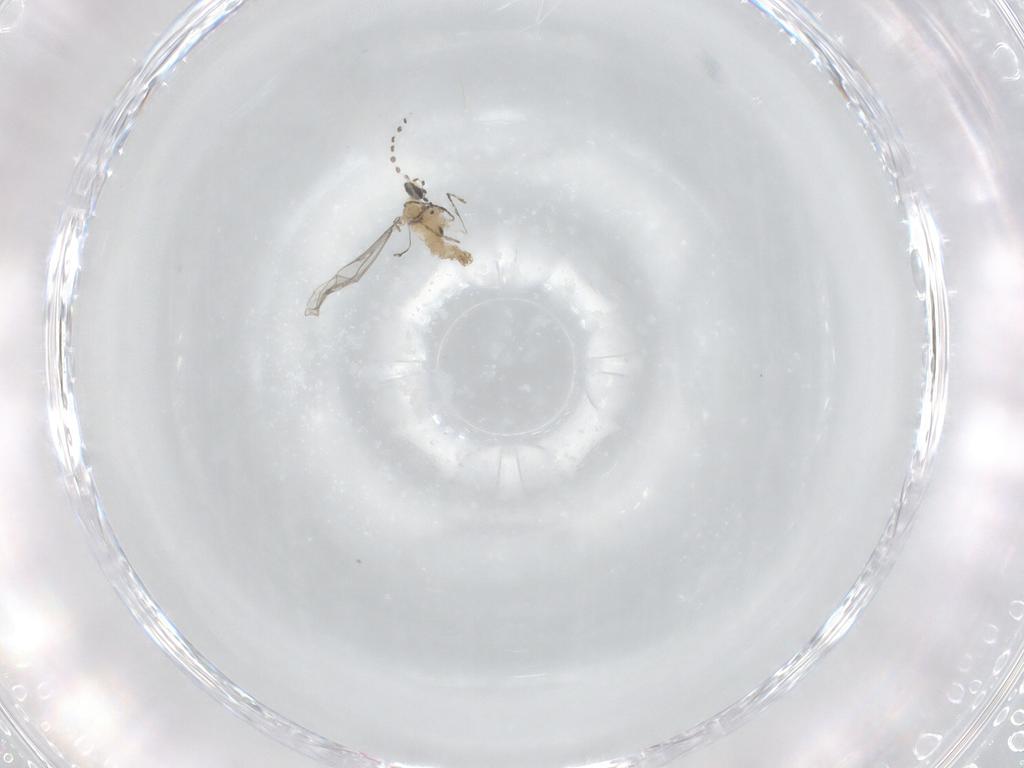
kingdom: Animalia
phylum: Arthropoda
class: Insecta
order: Diptera
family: Cecidomyiidae
